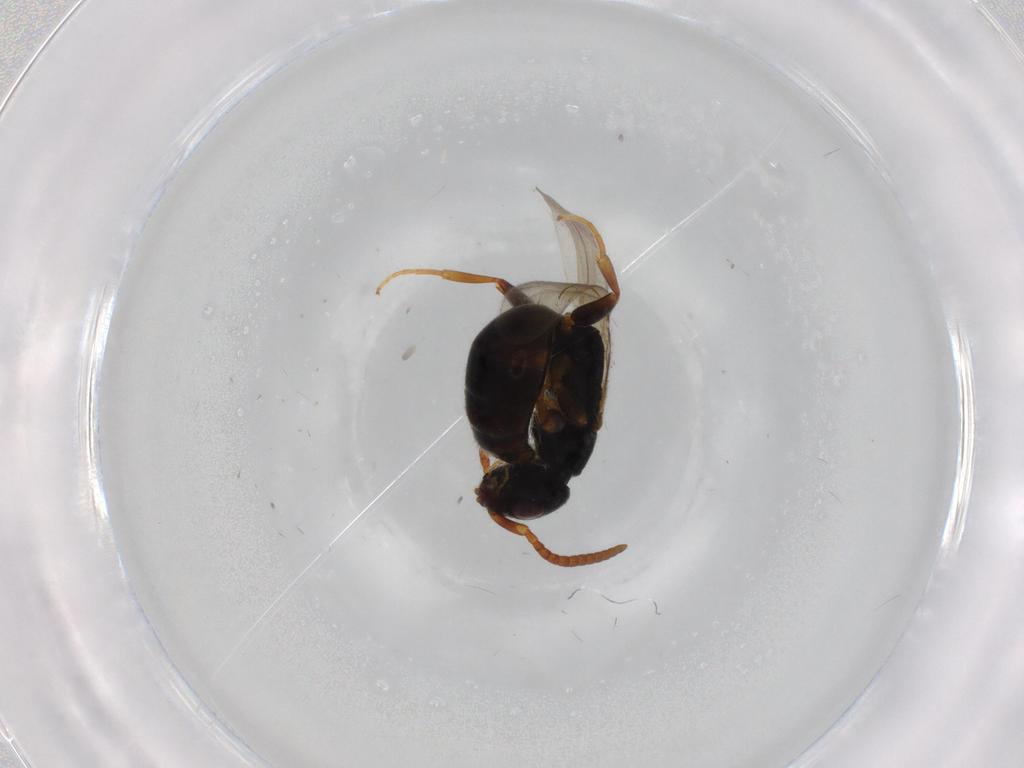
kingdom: Animalia
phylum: Arthropoda
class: Insecta
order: Hymenoptera
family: Bethylidae
